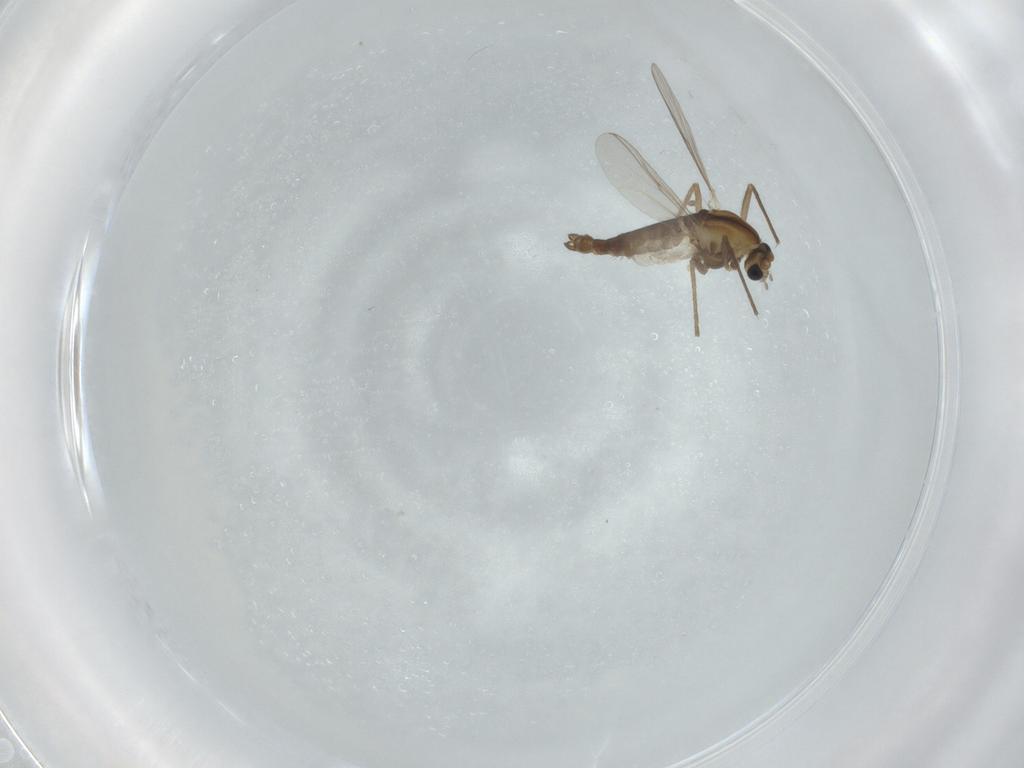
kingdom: Animalia
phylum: Arthropoda
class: Insecta
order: Diptera
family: Chironomidae
